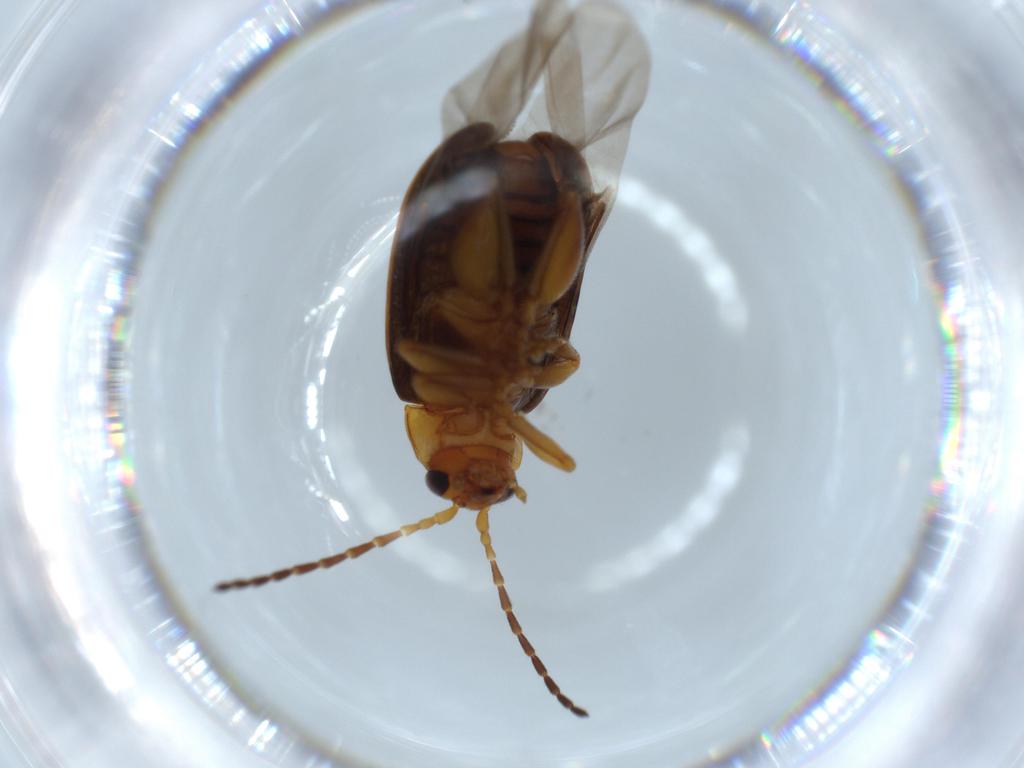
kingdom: Animalia
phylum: Arthropoda
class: Insecta
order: Coleoptera
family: Chrysomelidae
